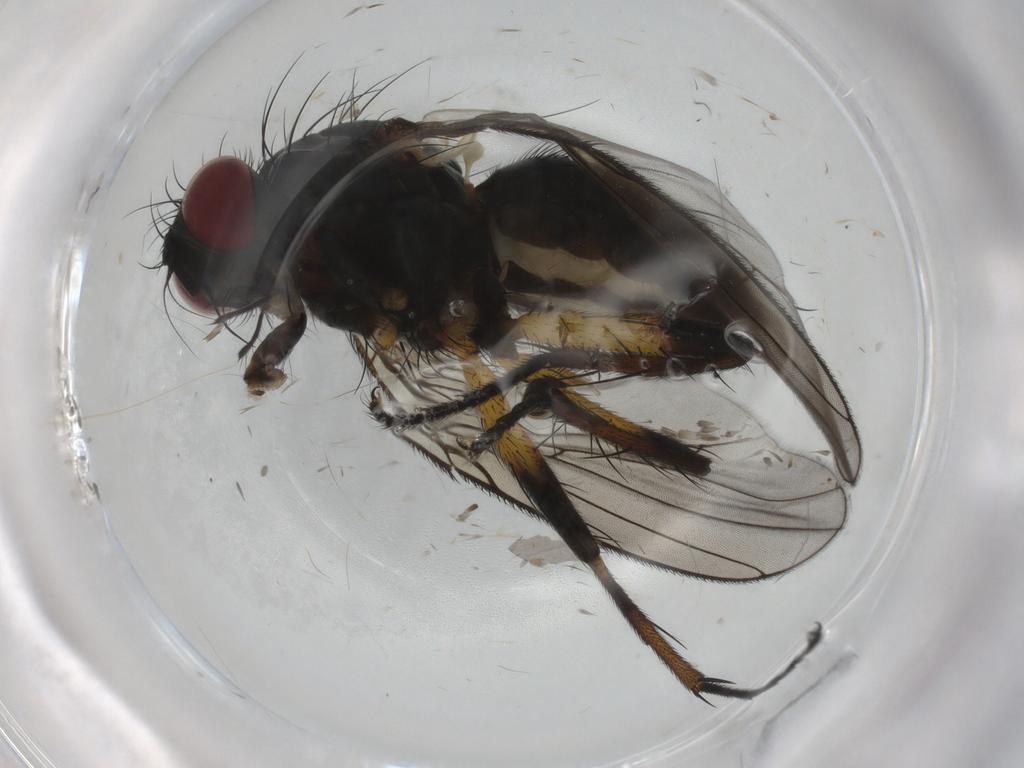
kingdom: Animalia
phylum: Arthropoda
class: Insecta
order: Diptera
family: Muscidae
